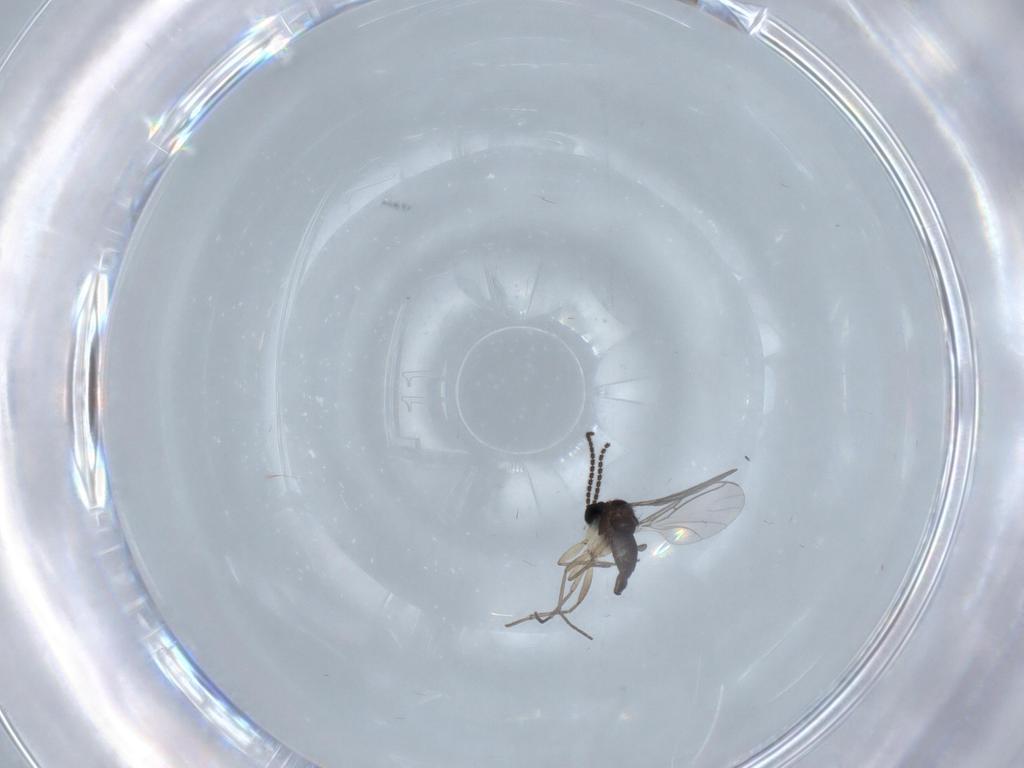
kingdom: Animalia
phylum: Arthropoda
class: Insecta
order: Diptera
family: Sciaridae
